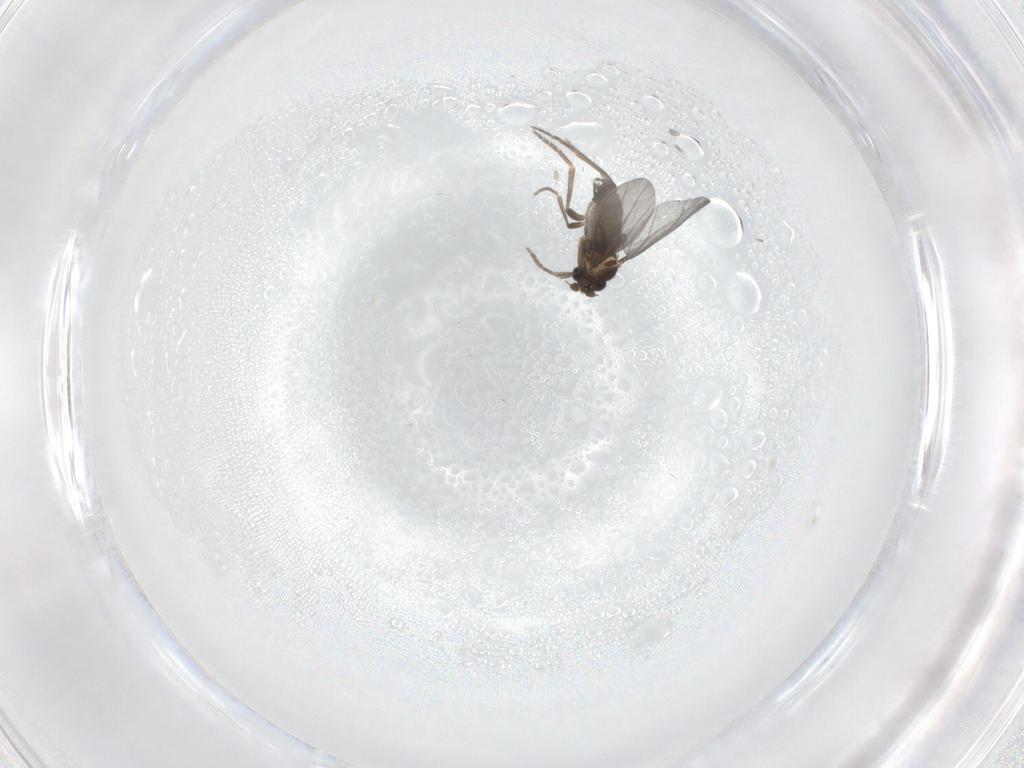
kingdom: Animalia
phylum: Arthropoda
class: Insecta
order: Diptera
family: Phoridae
